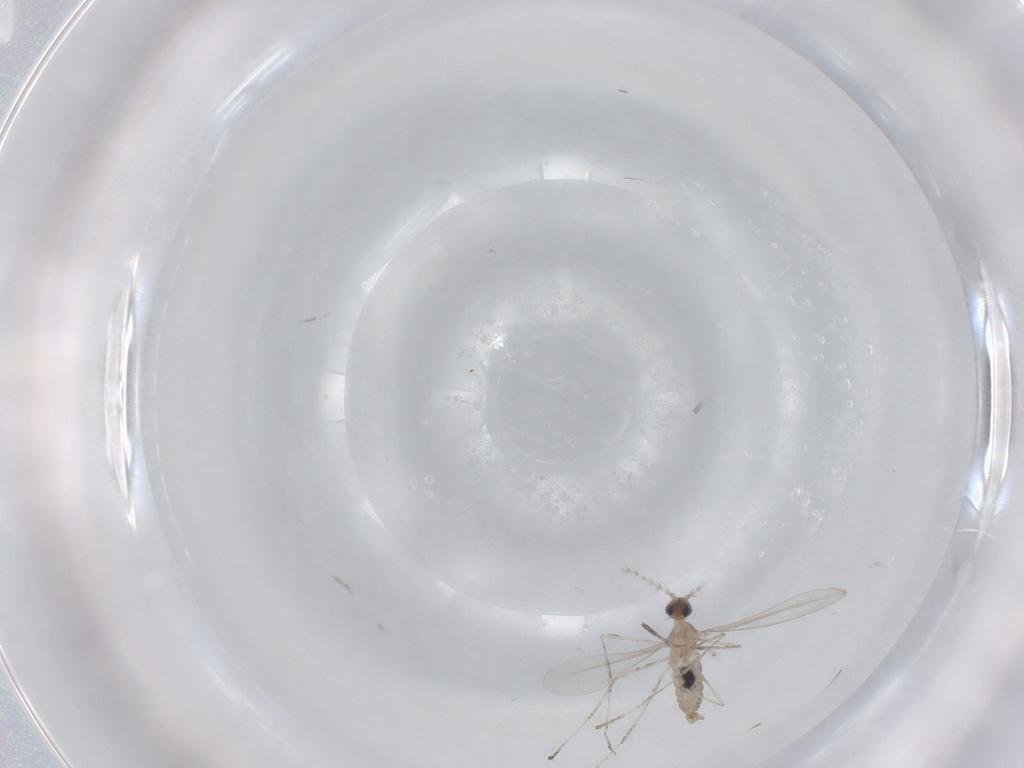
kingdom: Animalia
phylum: Arthropoda
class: Insecta
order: Diptera
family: Phoridae
